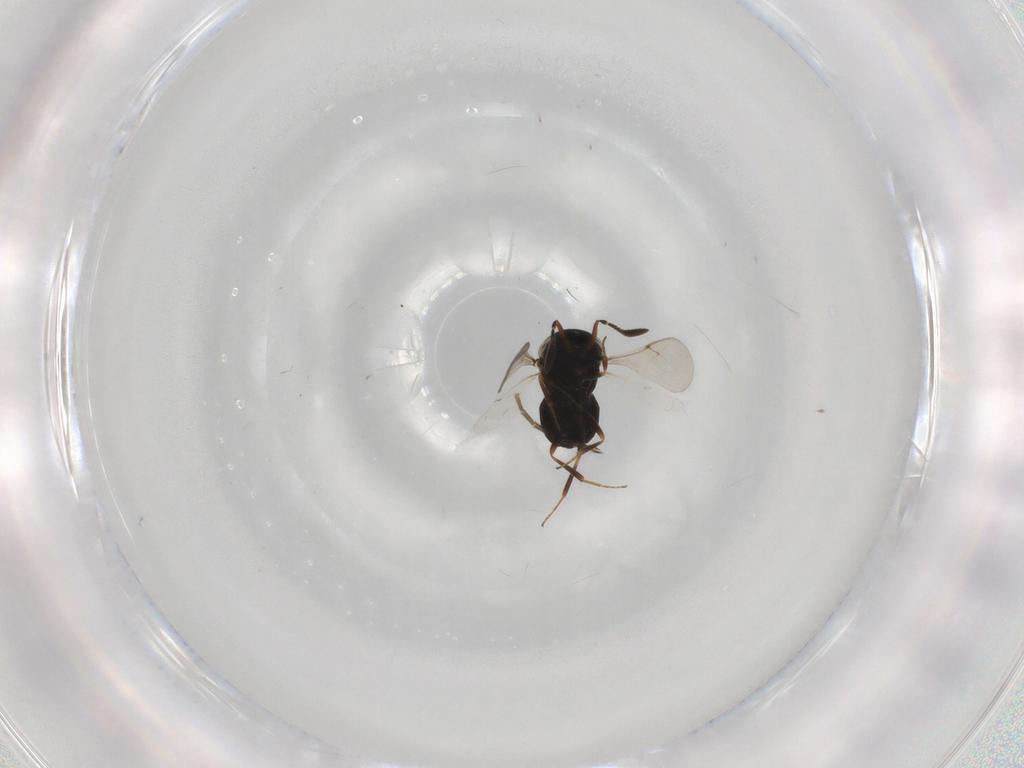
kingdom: Animalia
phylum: Arthropoda
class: Insecta
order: Hymenoptera
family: Scelionidae
